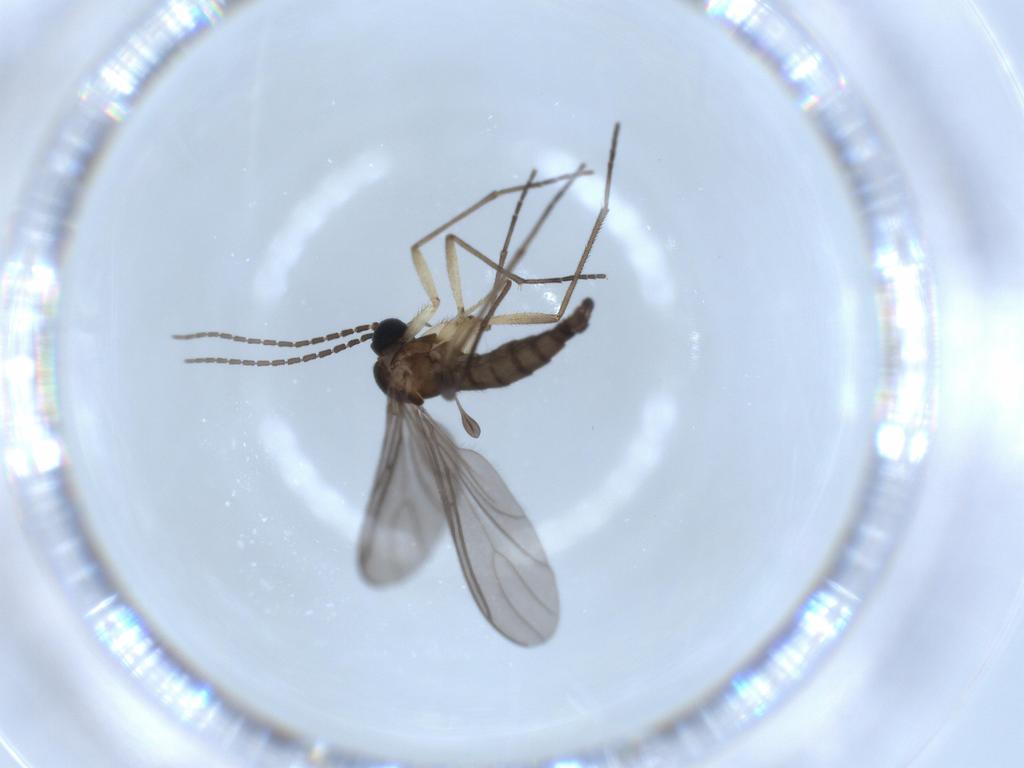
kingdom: Animalia
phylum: Arthropoda
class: Insecta
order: Diptera
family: Sciaridae
